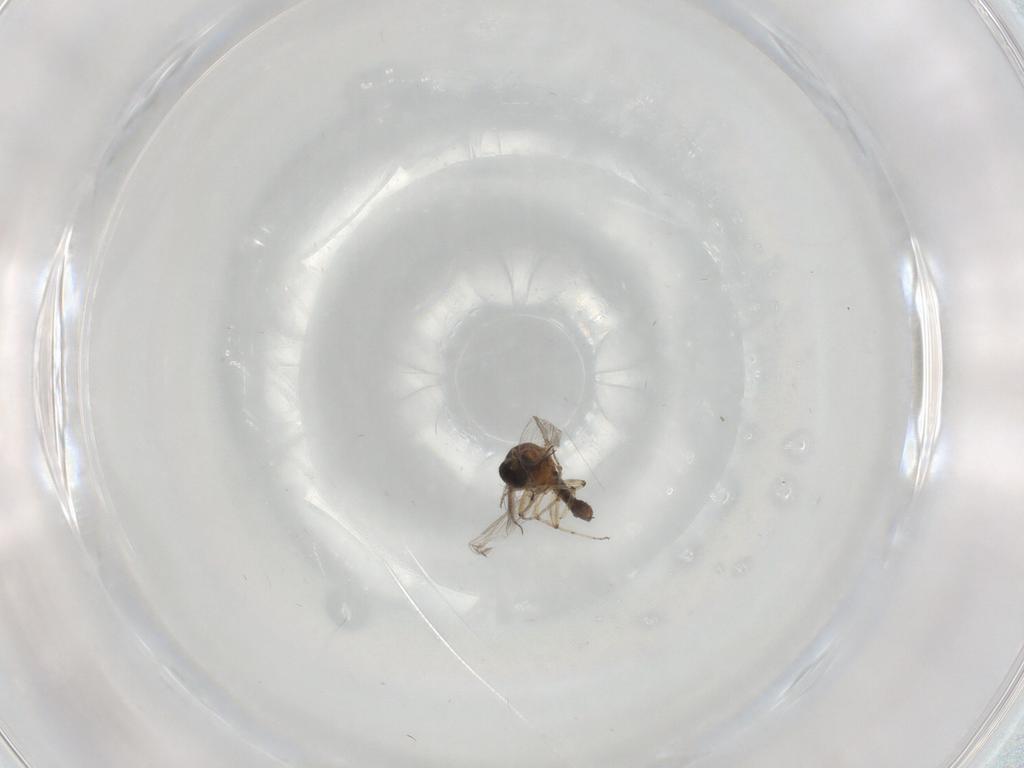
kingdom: Animalia
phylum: Arthropoda
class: Insecta
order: Diptera
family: Ceratopogonidae
